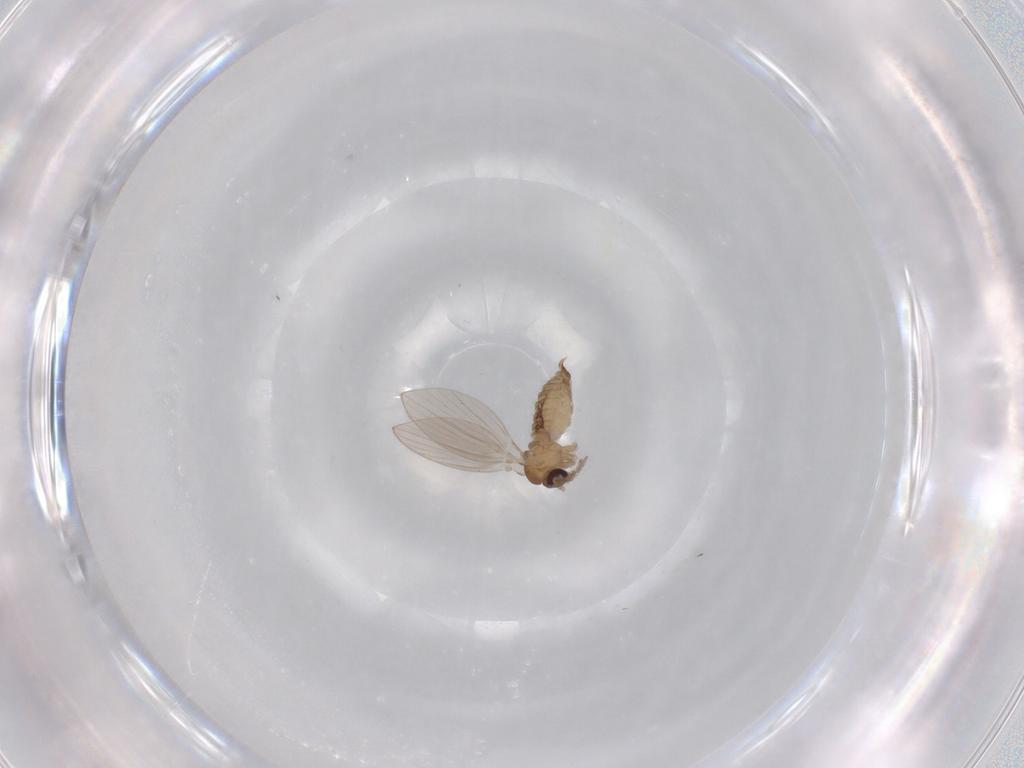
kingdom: Animalia
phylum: Arthropoda
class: Insecta
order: Diptera
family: Psychodidae
